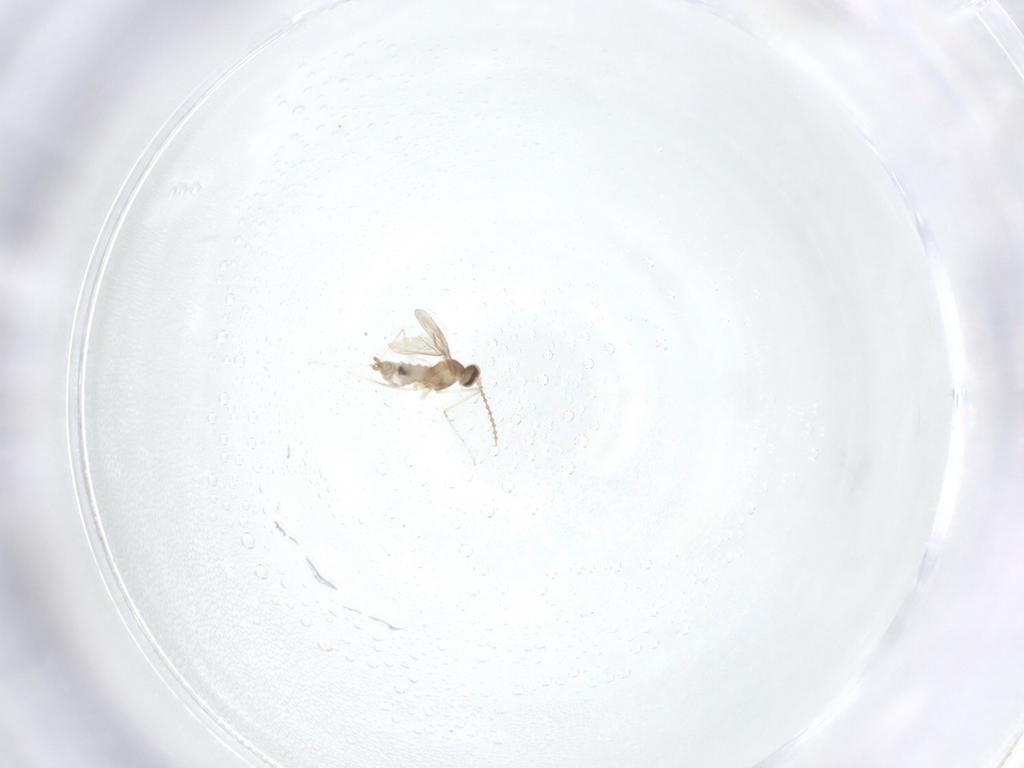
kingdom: Animalia
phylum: Arthropoda
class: Insecta
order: Diptera
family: Cecidomyiidae
